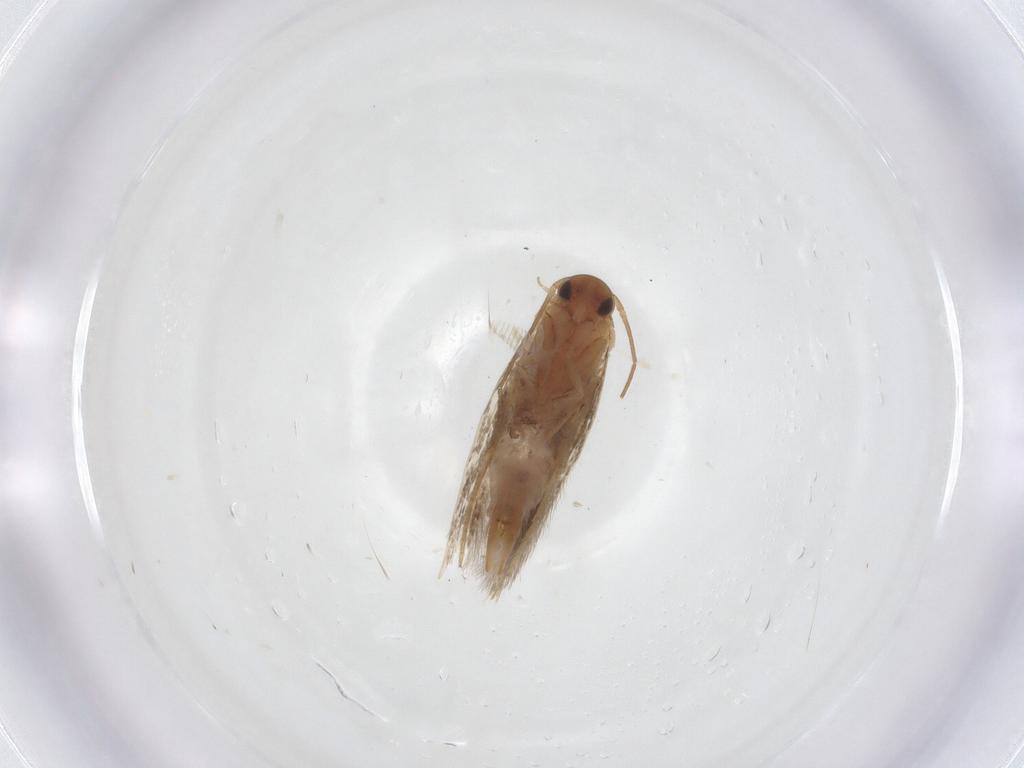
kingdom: Animalia
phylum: Arthropoda
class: Insecta
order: Lepidoptera
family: Elachistidae
